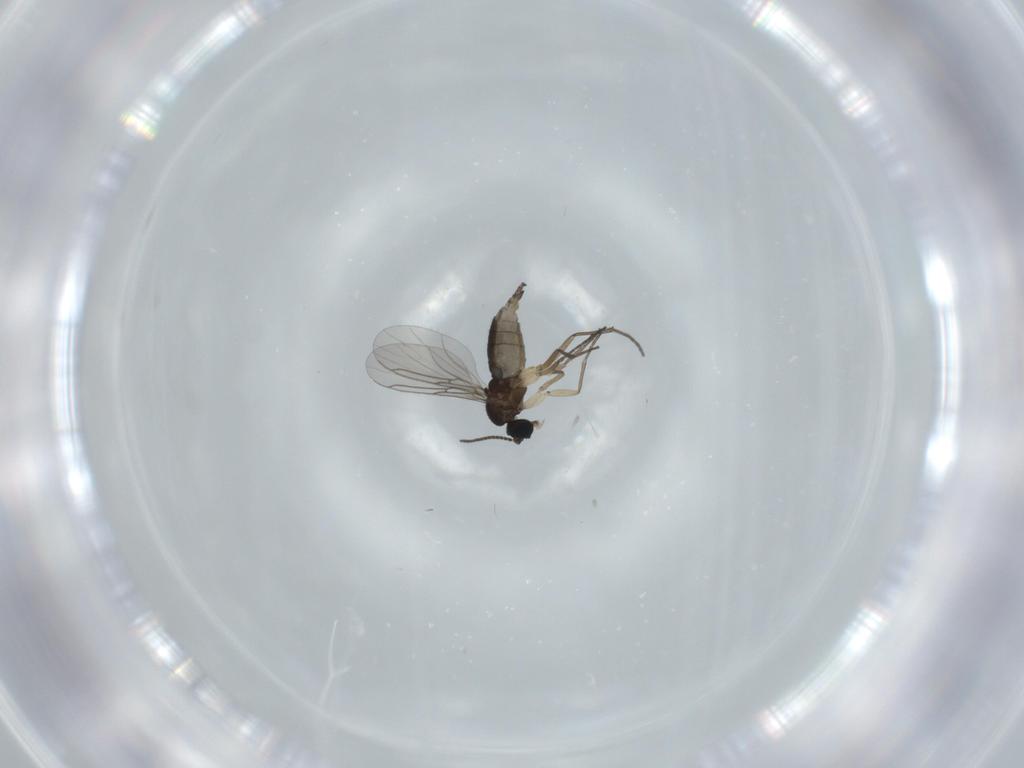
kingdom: Animalia
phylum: Arthropoda
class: Insecta
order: Diptera
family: Sciaridae
